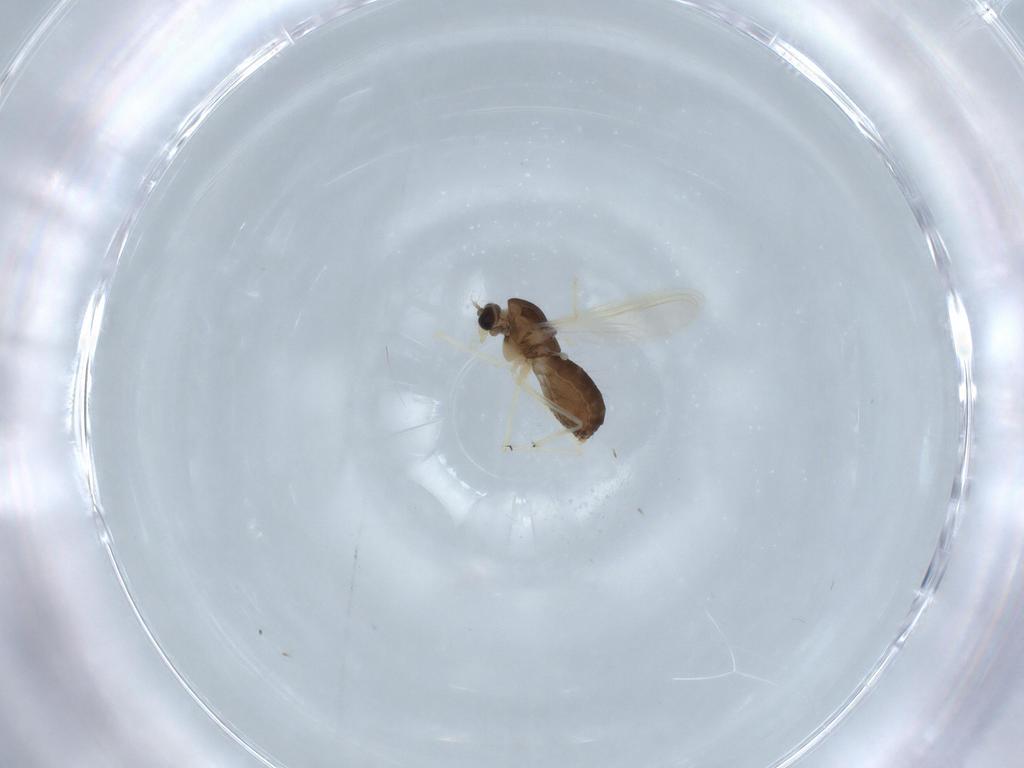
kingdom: Animalia
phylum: Arthropoda
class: Insecta
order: Diptera
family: Chironomidae
